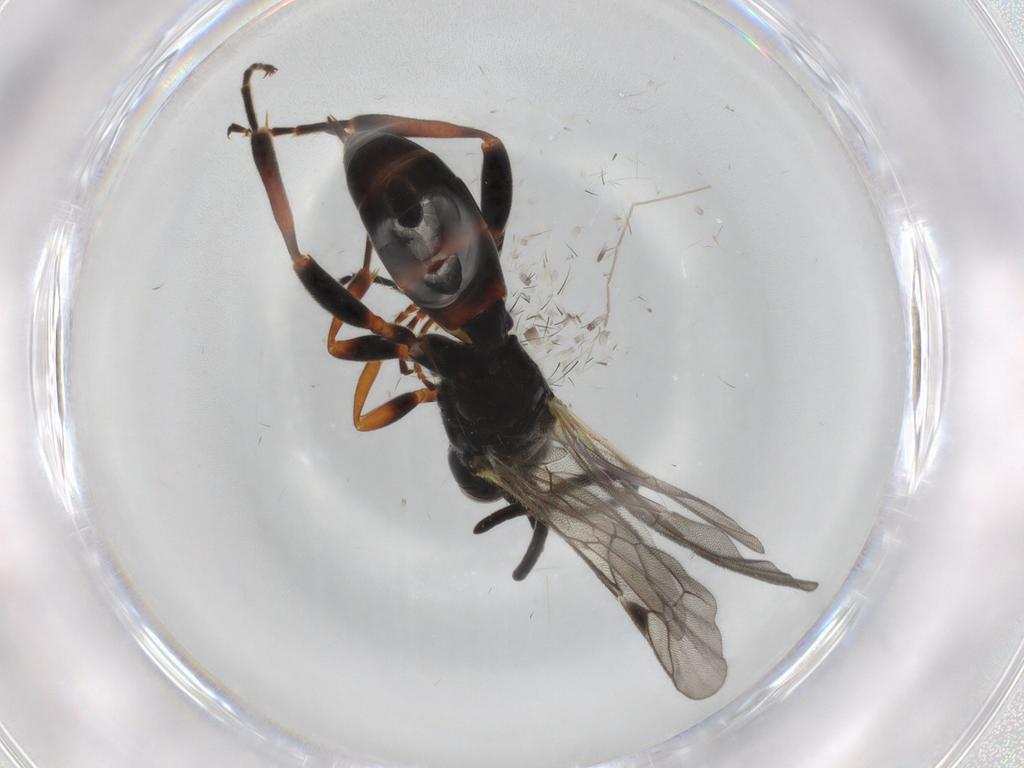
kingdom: Animalia
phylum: Arthropoda
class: Insecta
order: Hymenoptera
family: Ichneumonidae
